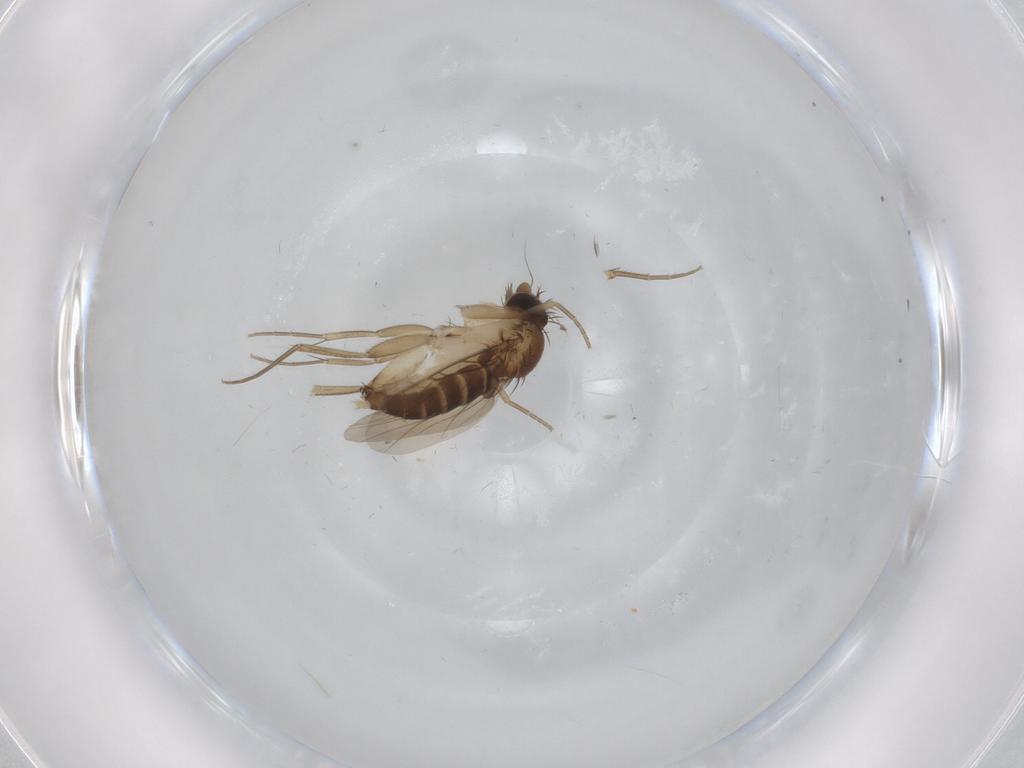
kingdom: Animalia
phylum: Arthropoda
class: Insecta
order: Diptera
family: Phoridae
